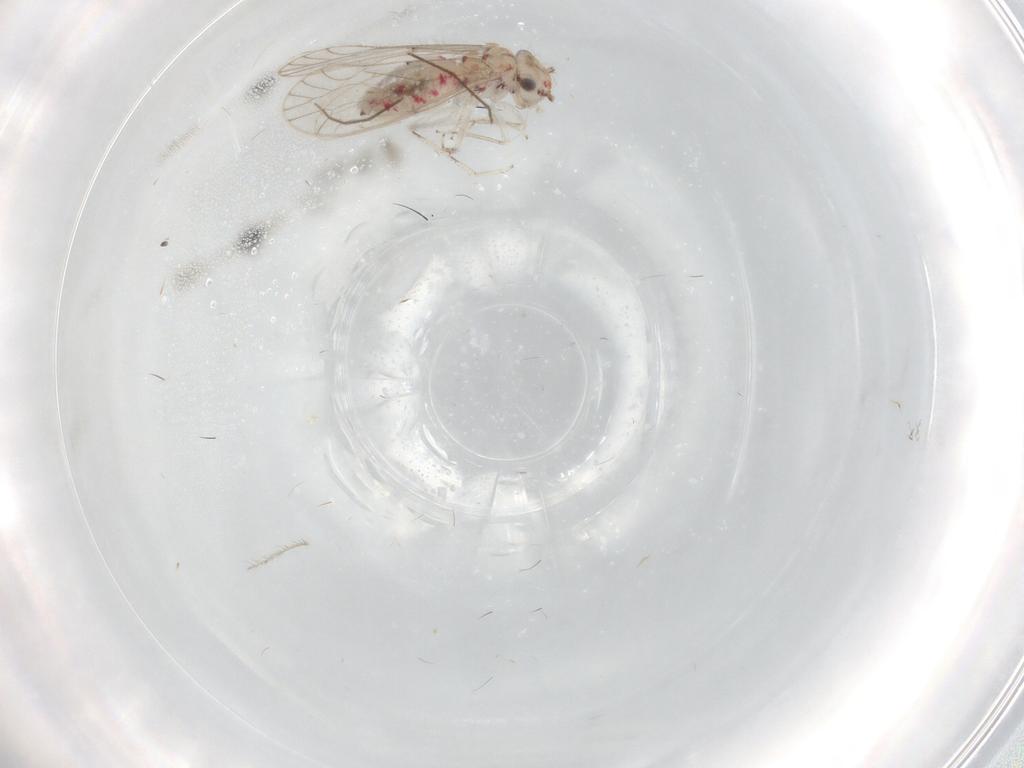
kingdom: Animalia
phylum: Arthropoda
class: Insecta
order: Psocodea
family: Caeciliusidae
